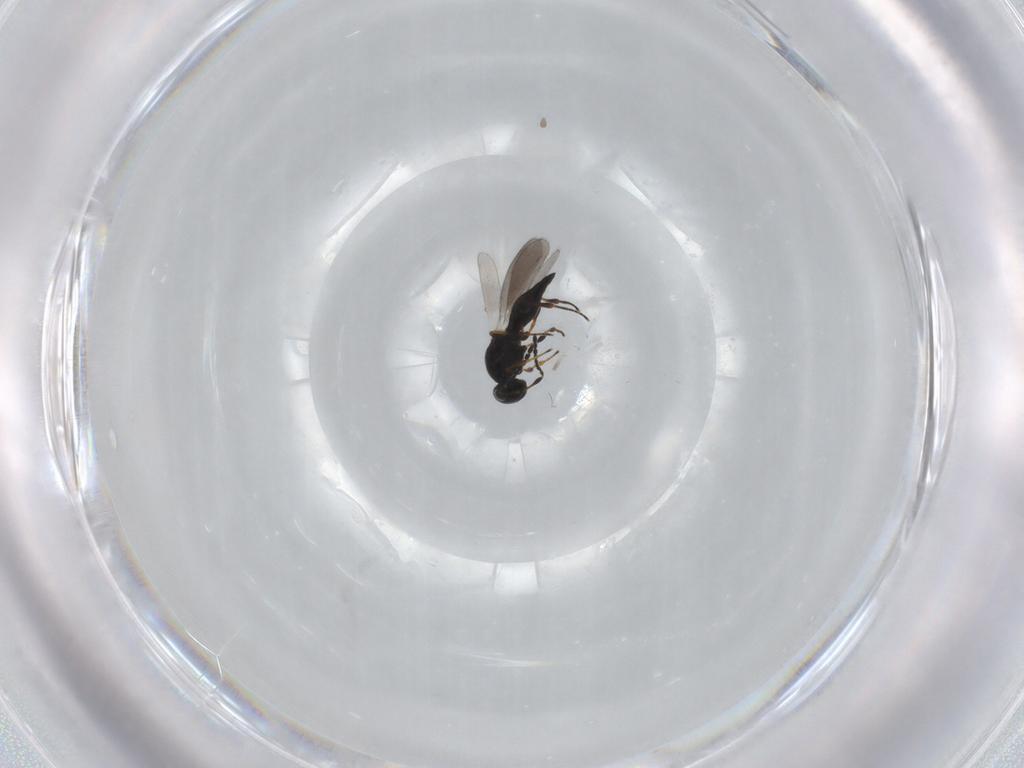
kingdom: Animalia
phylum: Arthropoda
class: Insecta
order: Hymenoptera
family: Platygastridae
